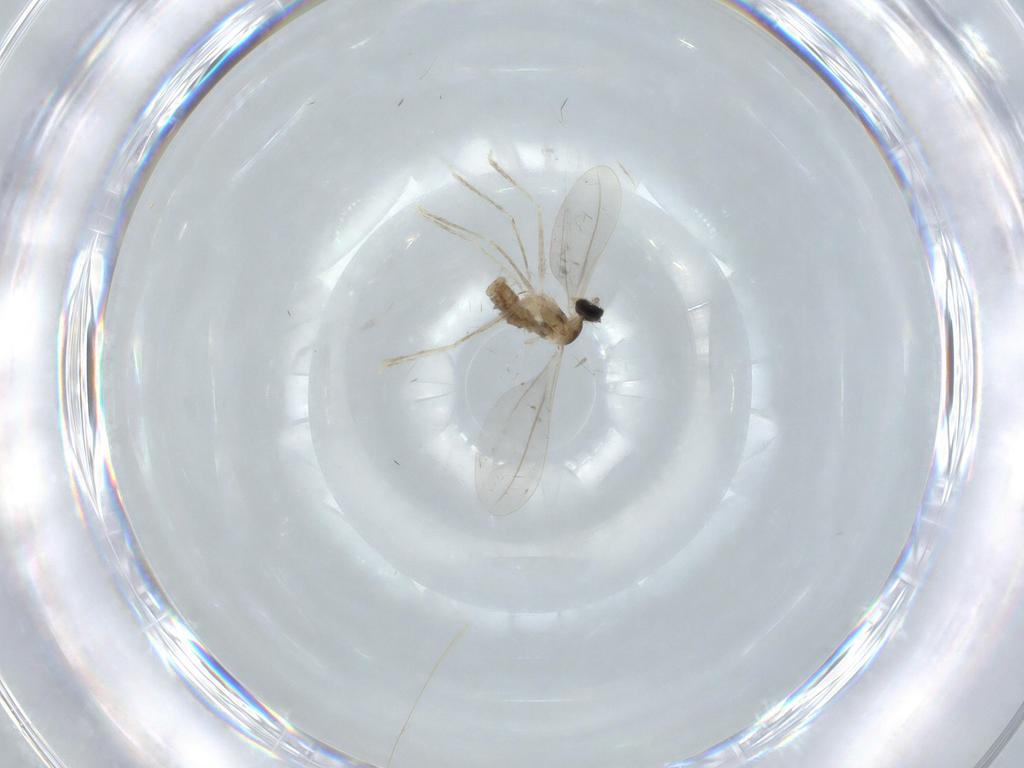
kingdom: Animalia
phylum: Arthropoda
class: Insecta
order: Diptera
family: Cecidomyiidae
